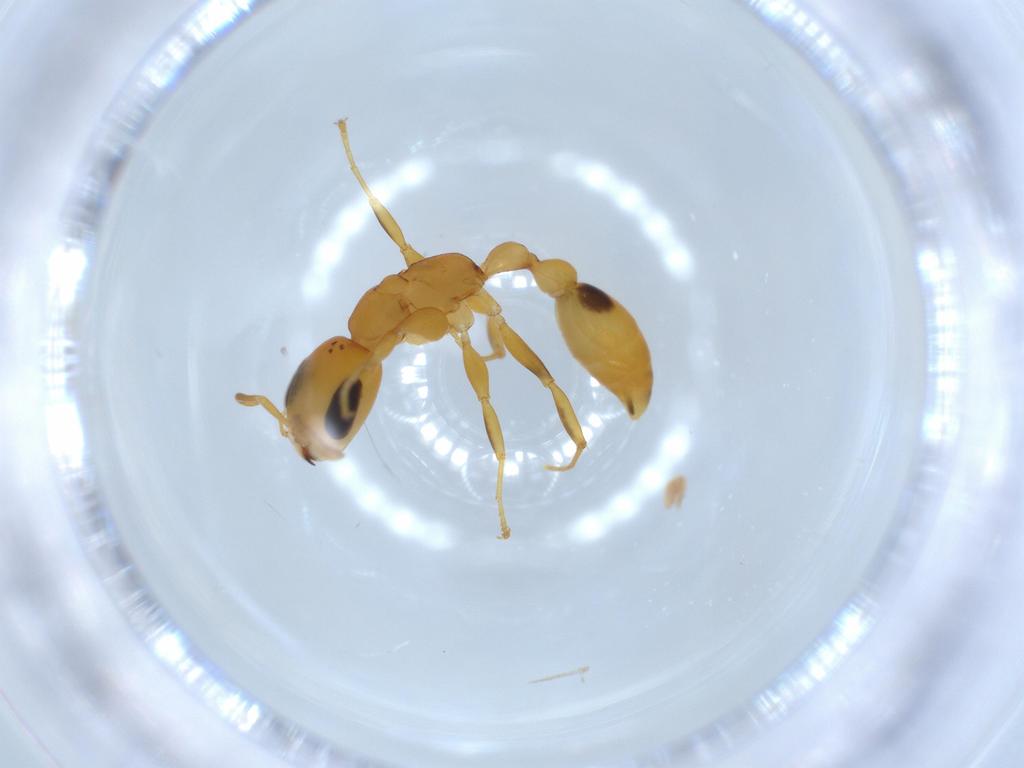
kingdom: Animalia
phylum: Arthropoda
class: Insecta
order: Hymenoptera
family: Formicidae
